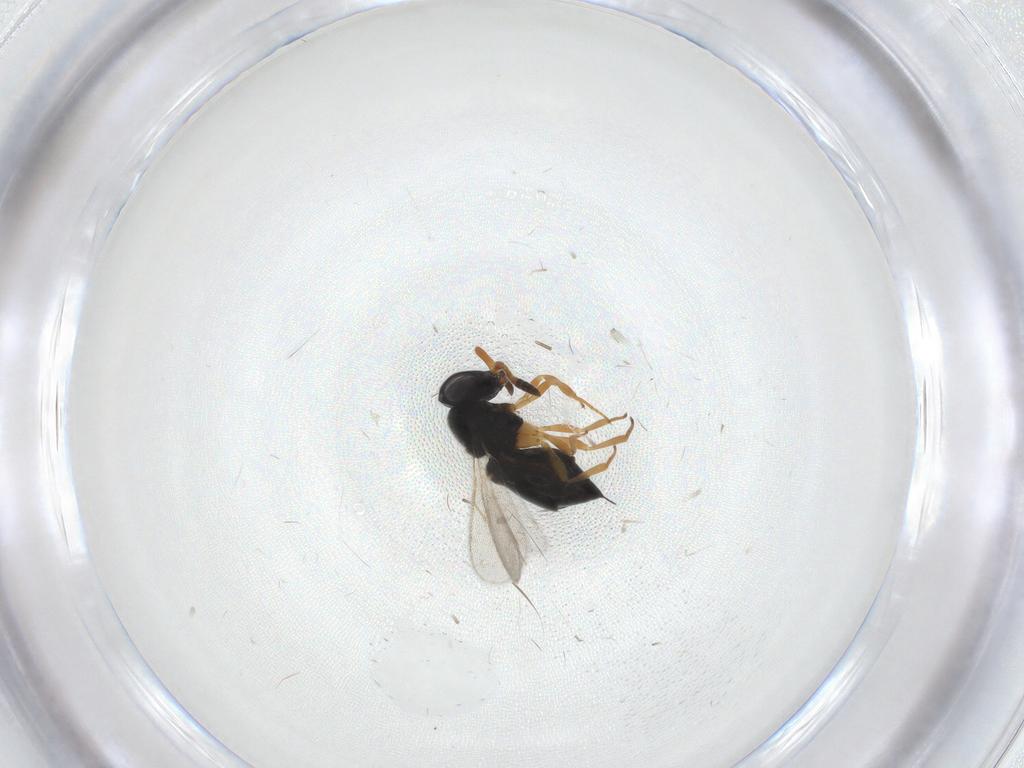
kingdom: Animalia
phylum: Arthropoda
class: Insecta
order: Hymenoptera
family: Scelionidae
